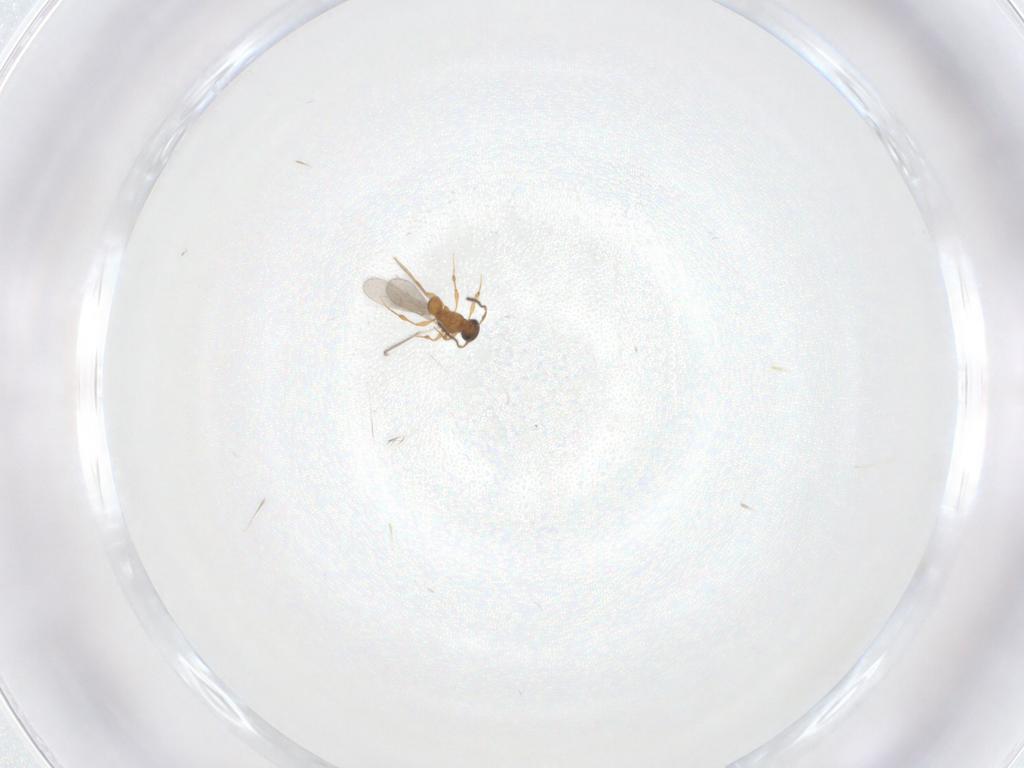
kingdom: Animalia
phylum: Arthropoda
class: Insecta
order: Hymenoptera
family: Platygastridae
